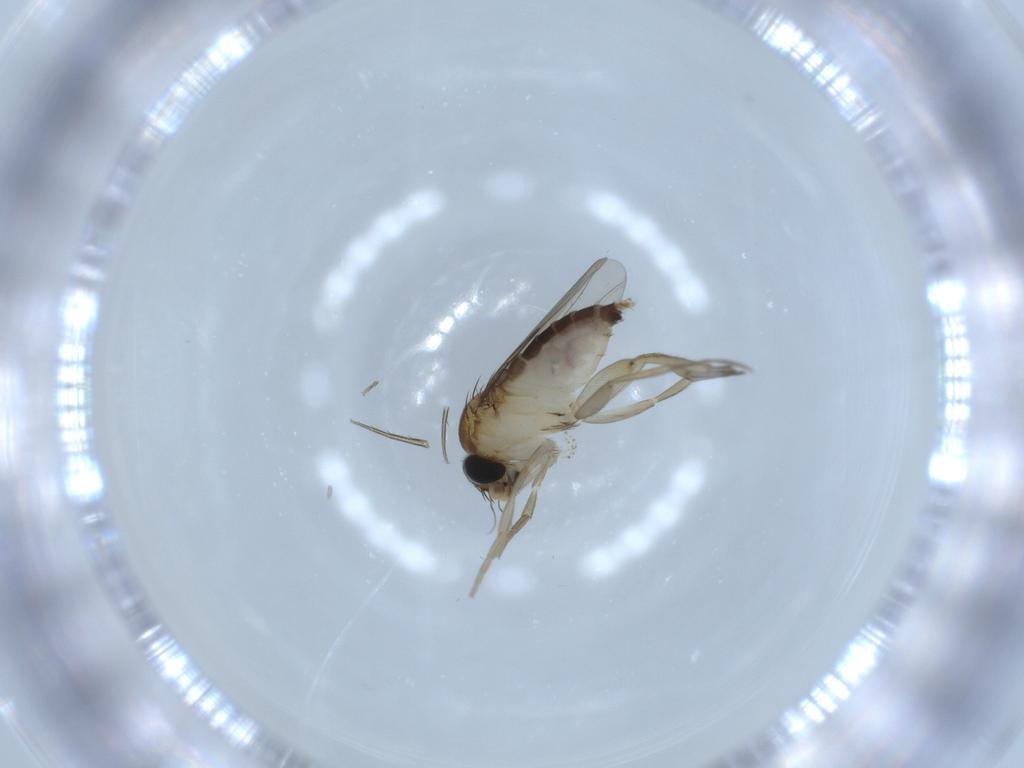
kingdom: Animalia
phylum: Arthropoda
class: Insecta
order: Diptera
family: Phoridae
